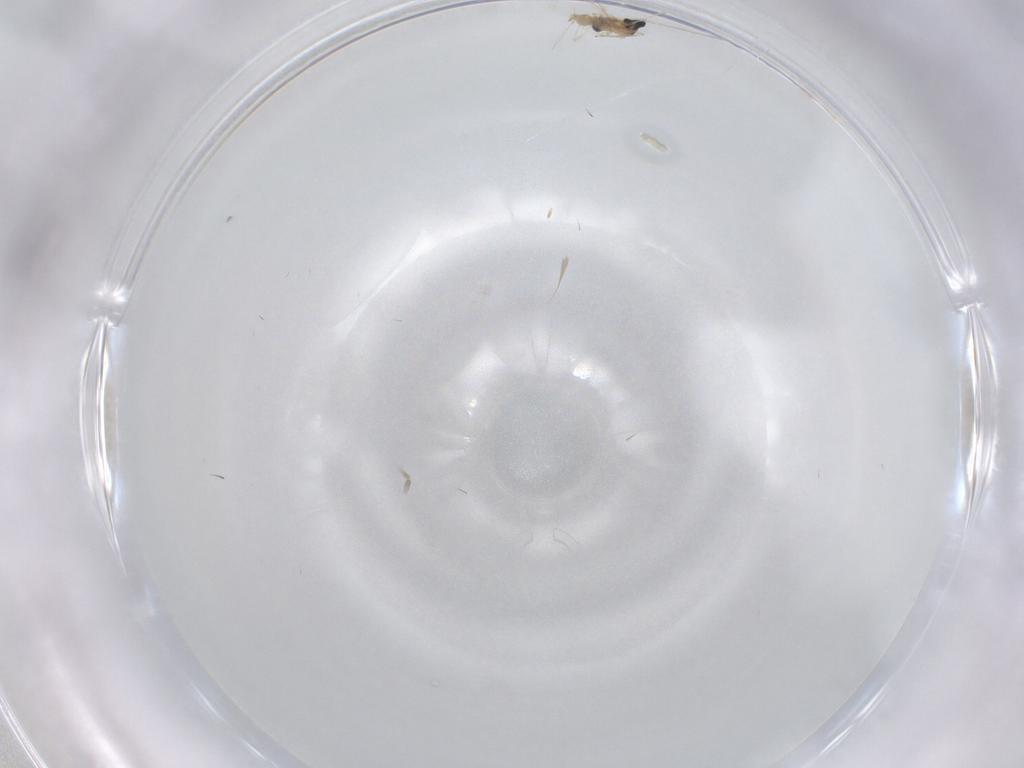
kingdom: Animalia
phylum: Arthropoda
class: Insecta
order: Diptera
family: Cecidomyiidae
